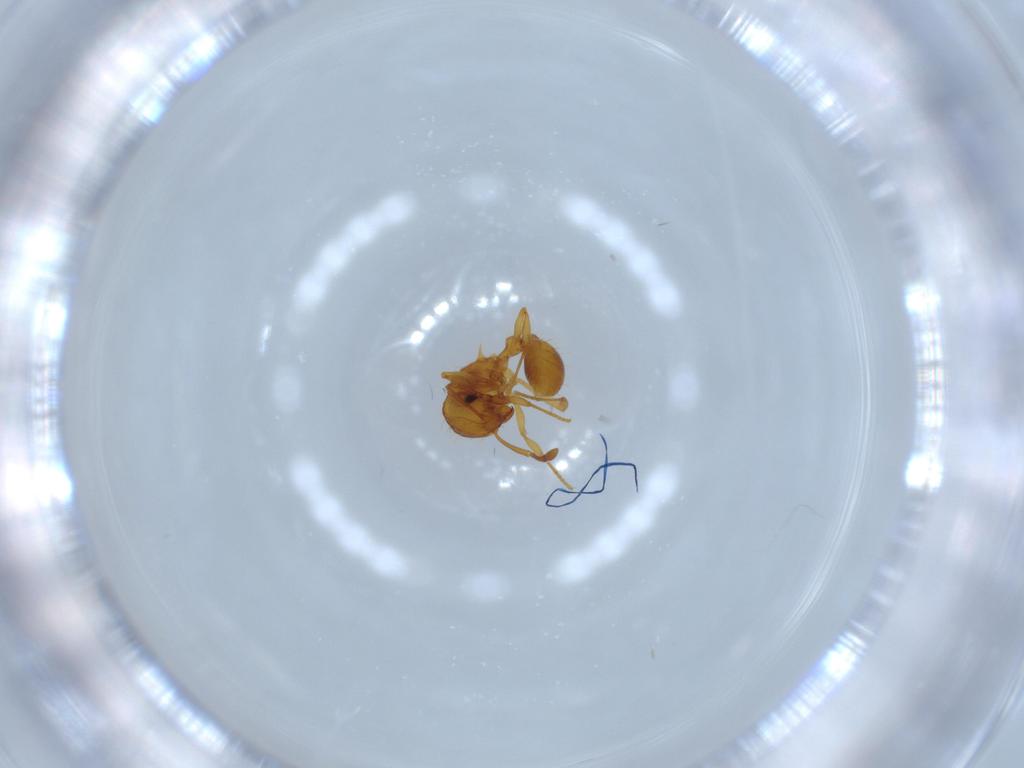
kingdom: Animalia
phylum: Arthropoda
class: Insecta
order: Hymenoptera
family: Formicidae
